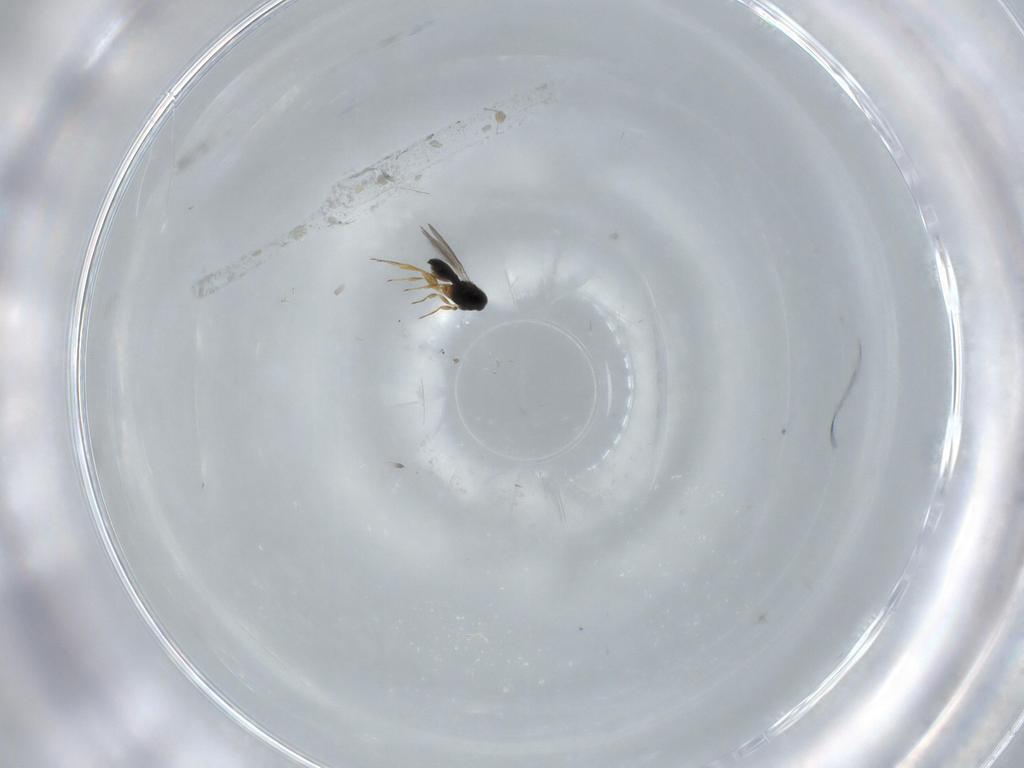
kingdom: Animalia
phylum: Arthropoda
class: Insecta
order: Hymenoptera
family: Scelionidae
